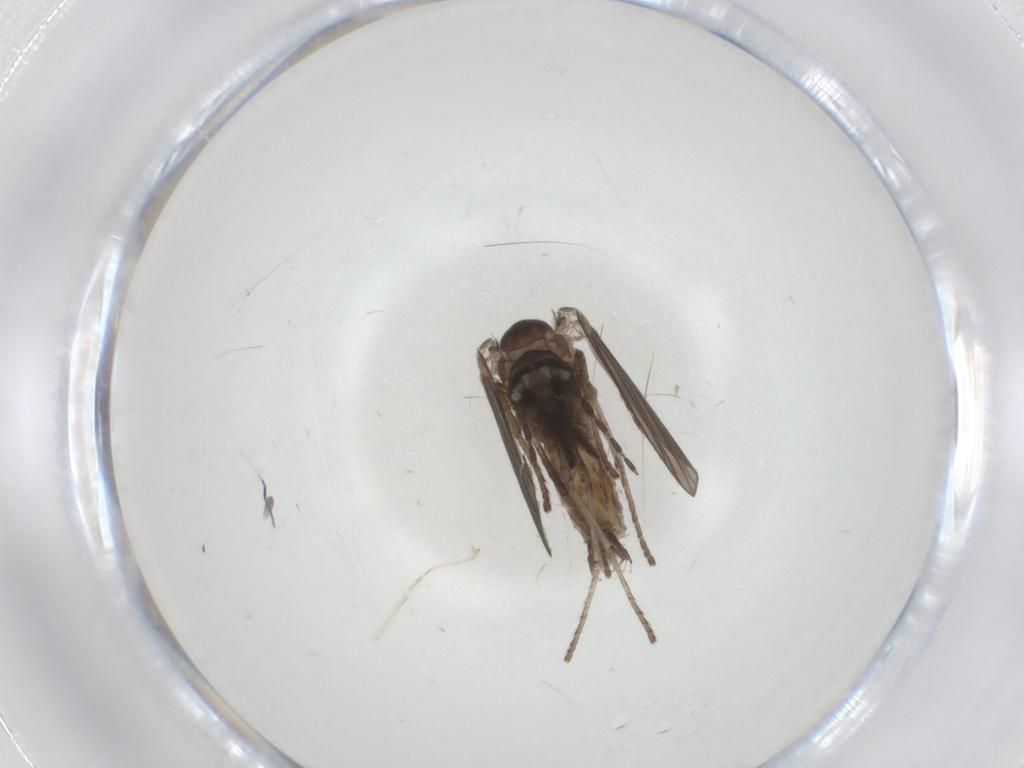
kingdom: Animalia
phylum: Arthropoda
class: Insecta
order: Diptera
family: Psychodidae
